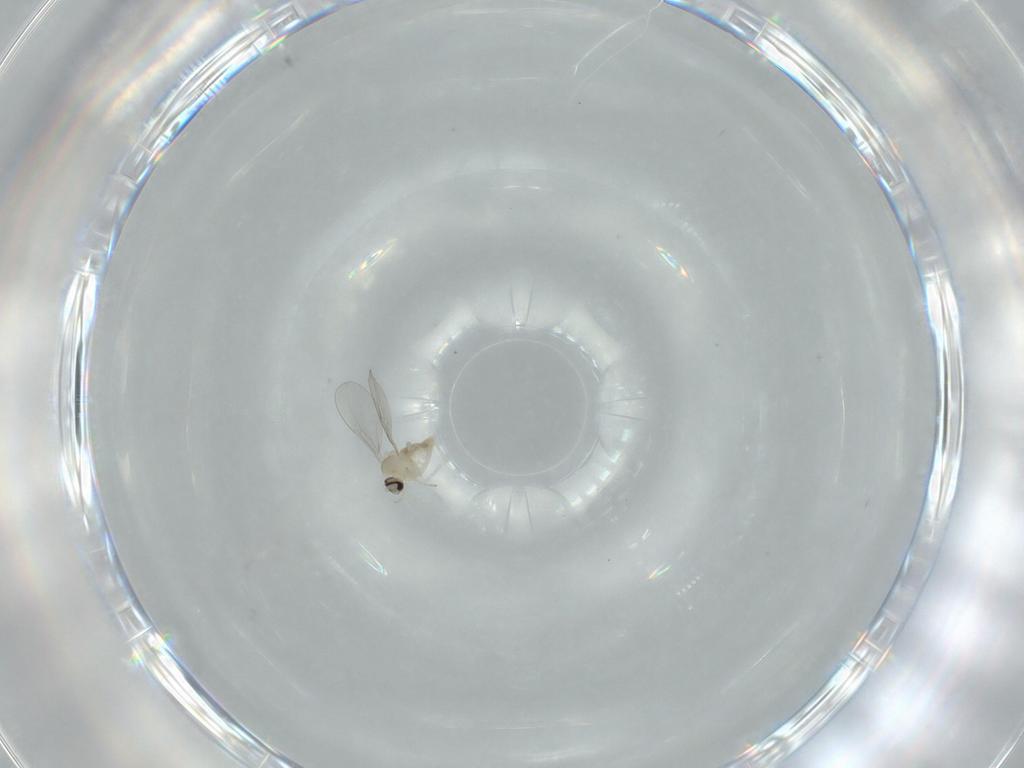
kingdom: Animalia
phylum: Arthropoda
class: Insecta
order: Diptera
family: Cecidomyiidae
